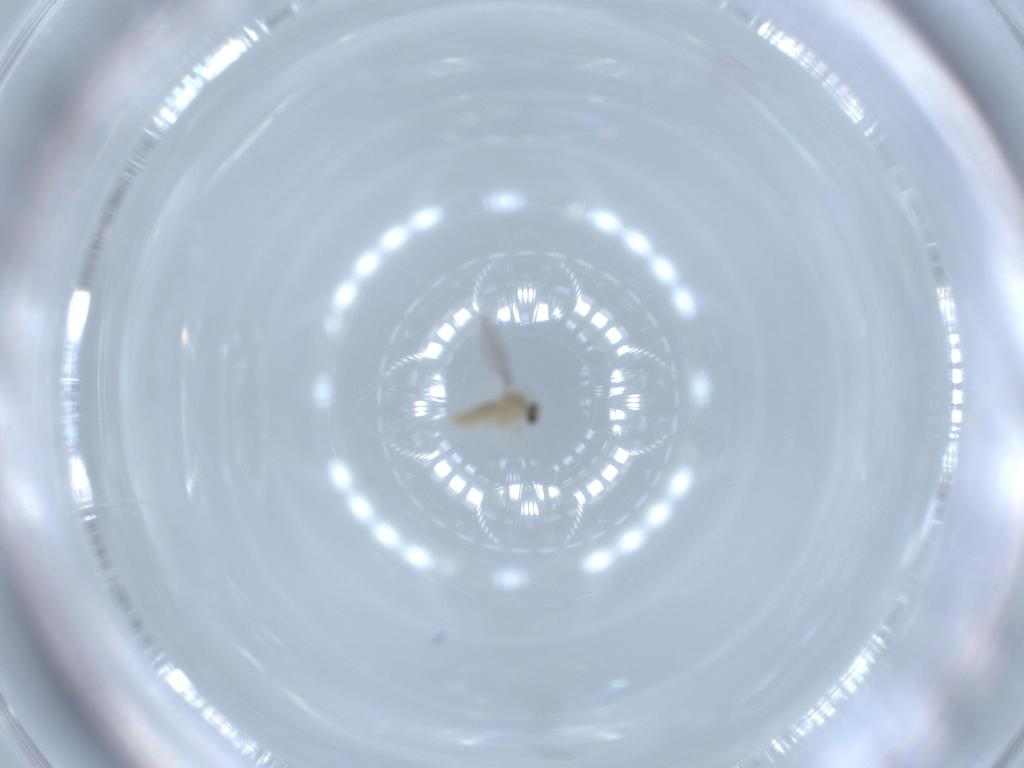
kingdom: Animalia
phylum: Arthropoda
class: Insecta
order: Diptera
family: Cecidomyiidae
